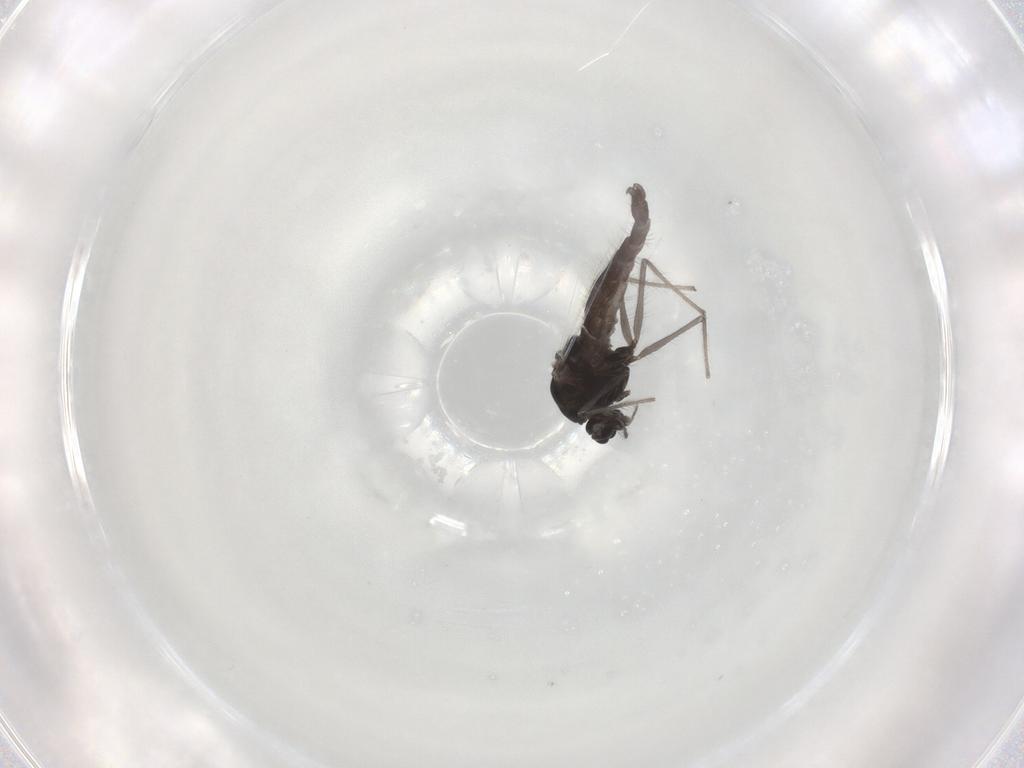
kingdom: Animalia
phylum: Arthropoda
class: Insecta
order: Diptera
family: Chironomidae
